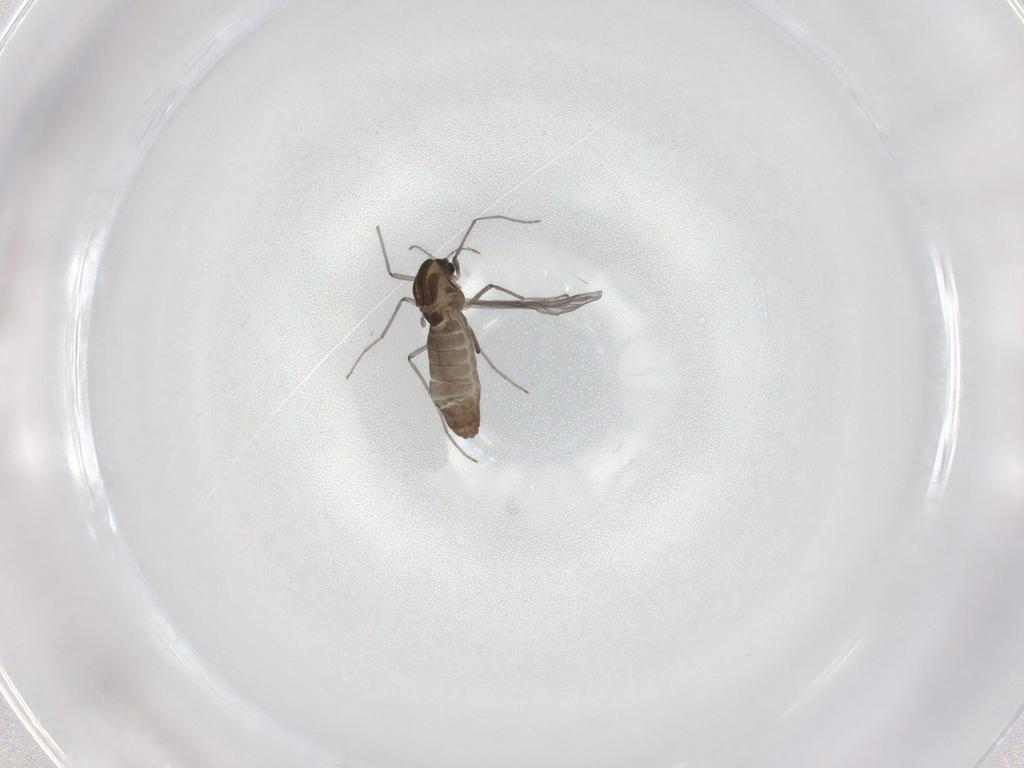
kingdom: Animalia
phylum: Arthropoda
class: Insecta
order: Diptera
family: Chironomidae
